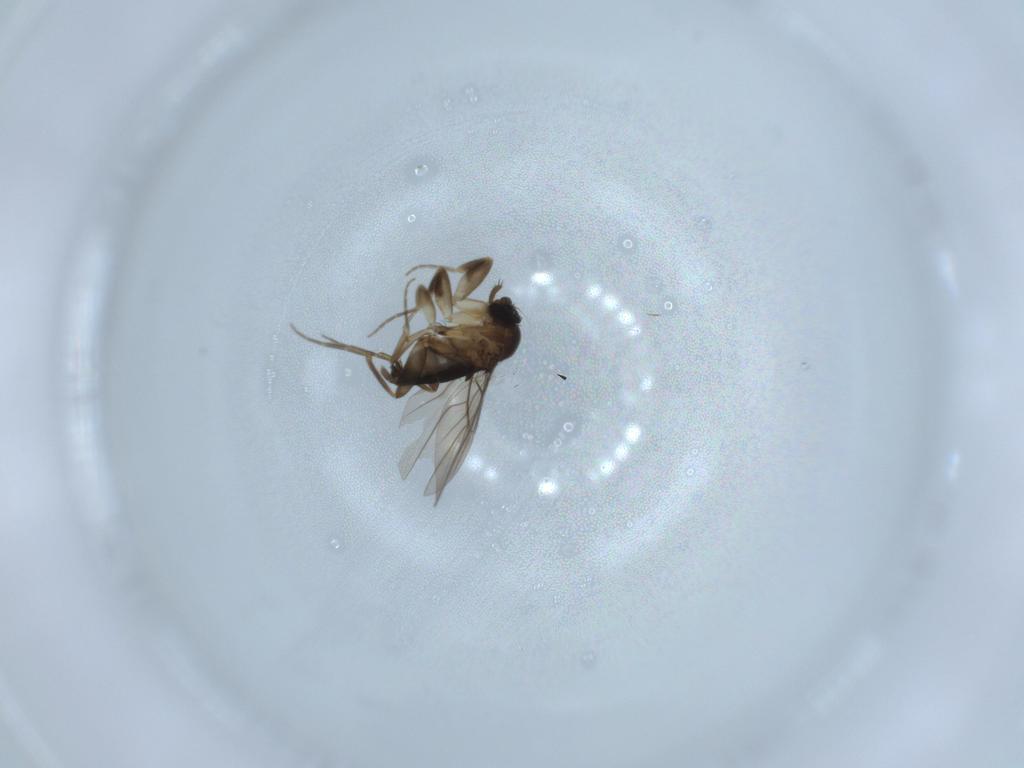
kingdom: Animalia
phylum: Arthropoda
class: Insecta
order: Diptera
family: Phoridae
